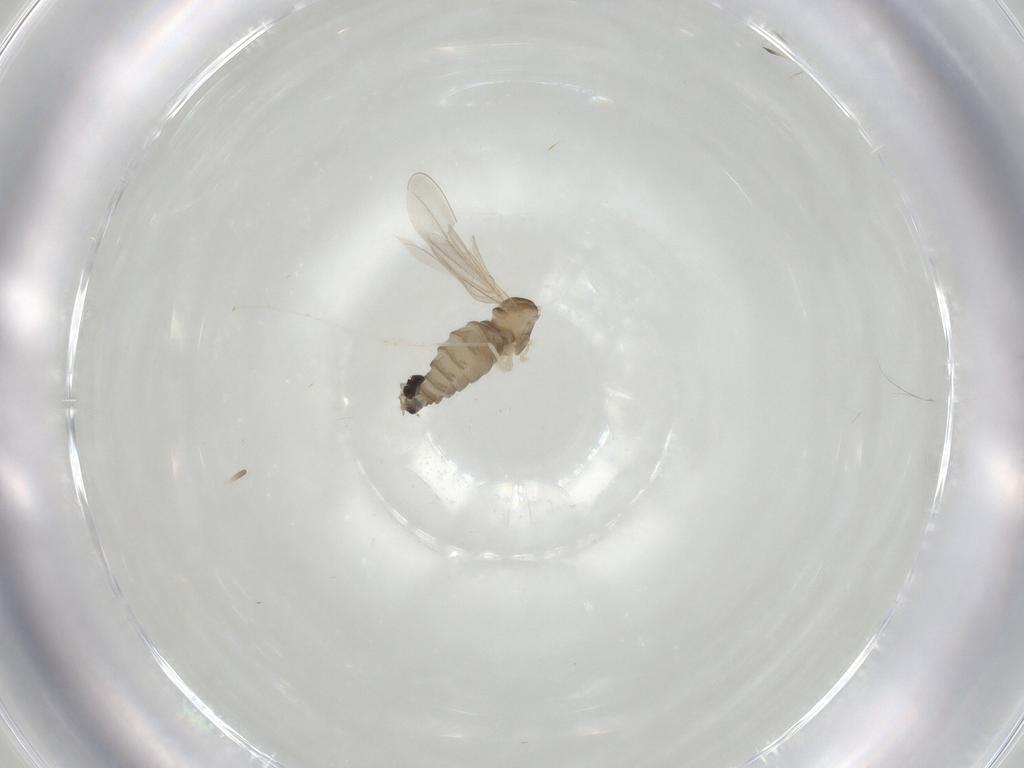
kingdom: Animalia
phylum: Arthropoda
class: Insecta
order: Diptera
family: Cecidomyiidae
